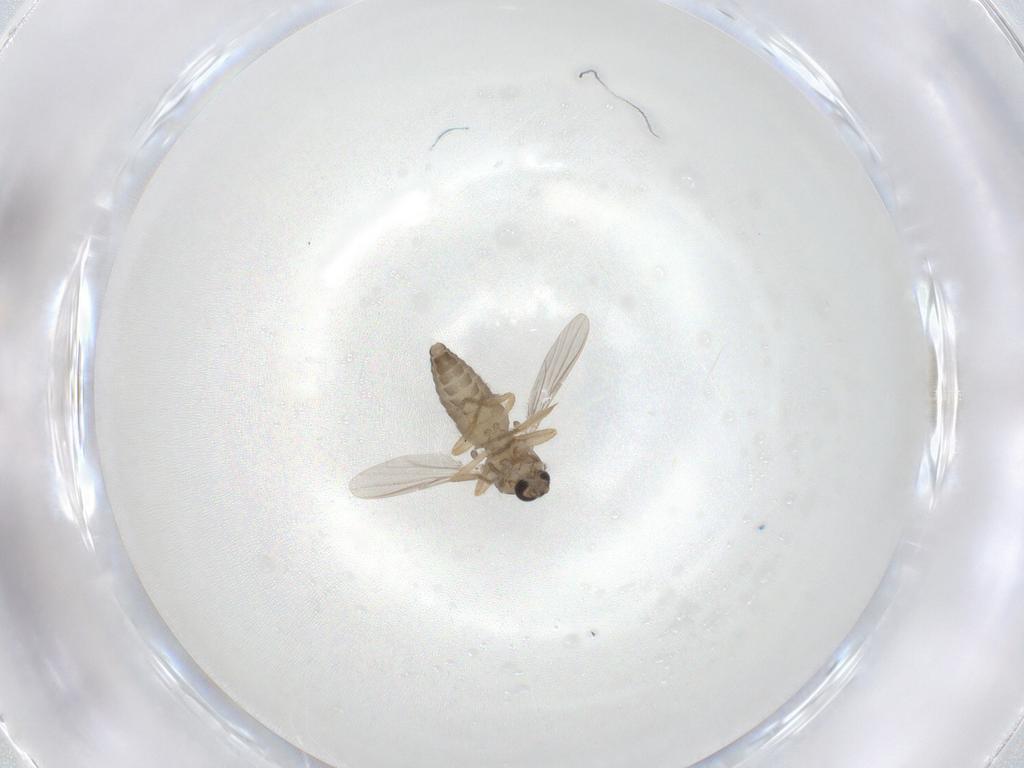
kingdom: Animalia
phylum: Arthropoda
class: Insecta
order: Diptera
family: Ceratopogonidae
